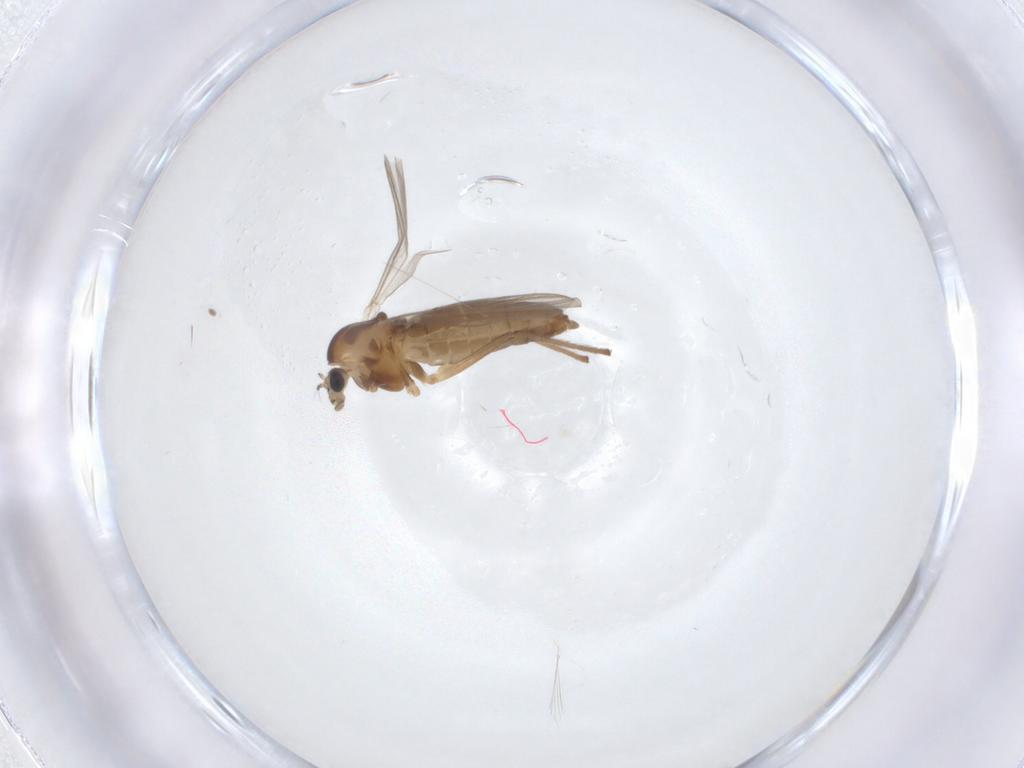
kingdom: Animalia
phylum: Arthropoda
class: Insecta
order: Diptera
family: Chironomidae
